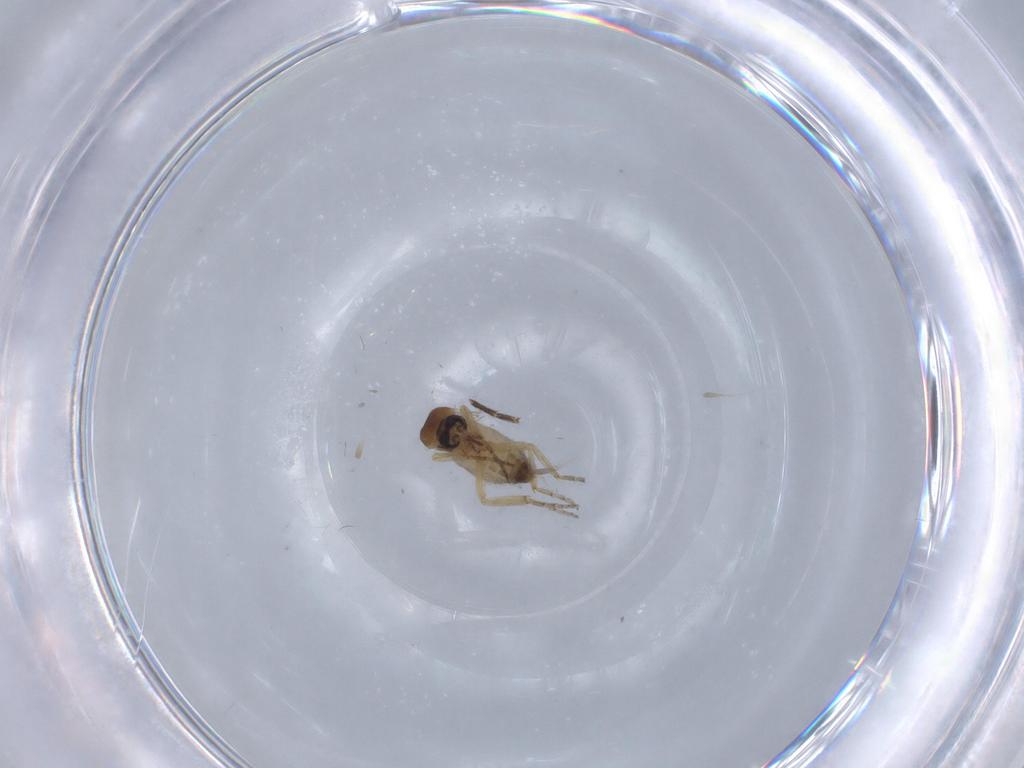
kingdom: Animalia
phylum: Arthropoda
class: Insecta
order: Diptera
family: Ceratopogonidae
